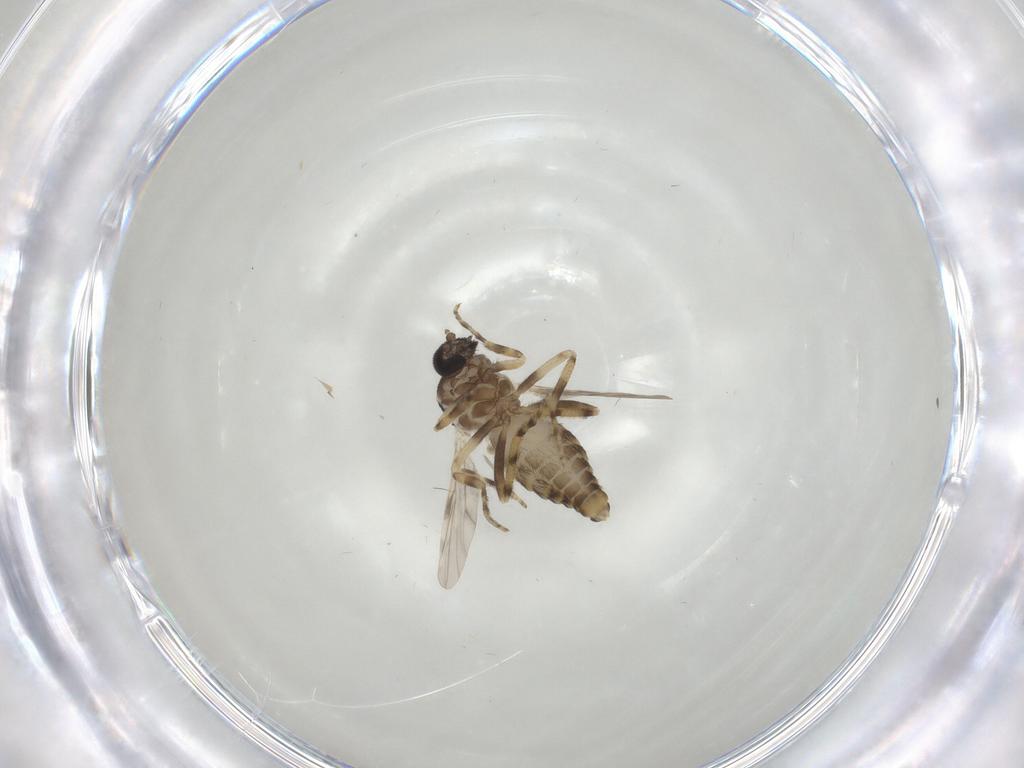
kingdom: Animalia
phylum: Arthropoda
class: Insecta
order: Diptera
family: Ceratopogonidae
